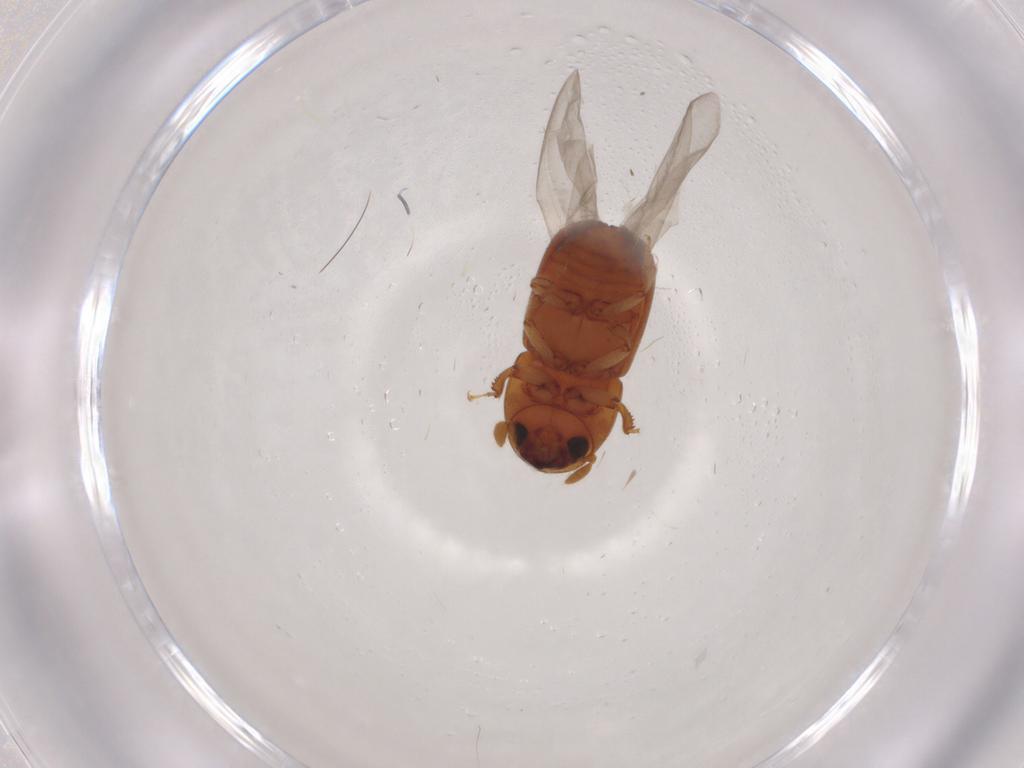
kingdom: Animalia
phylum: Arthropoda
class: Insecta
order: Coleoptera
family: Curculionidae
